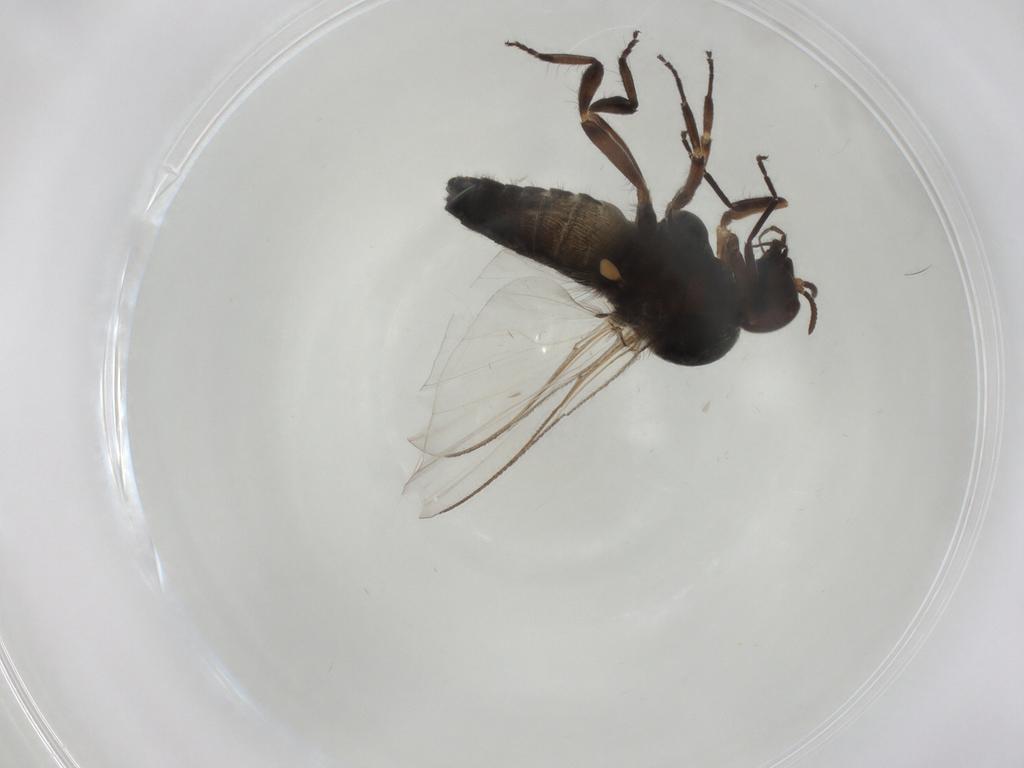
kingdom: Animalia
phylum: Arthropoda
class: Insecta
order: Diptera
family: Simuliidae
